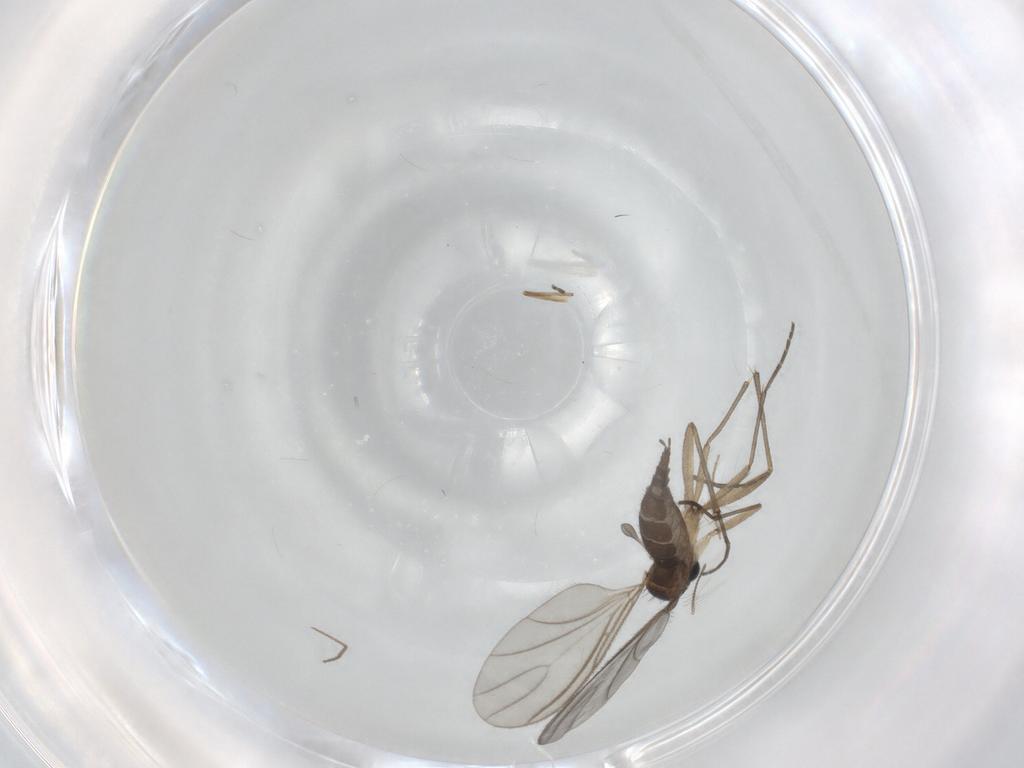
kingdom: Animalia
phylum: Arthropoda
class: Insecta
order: Diptera
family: Sciaridae
